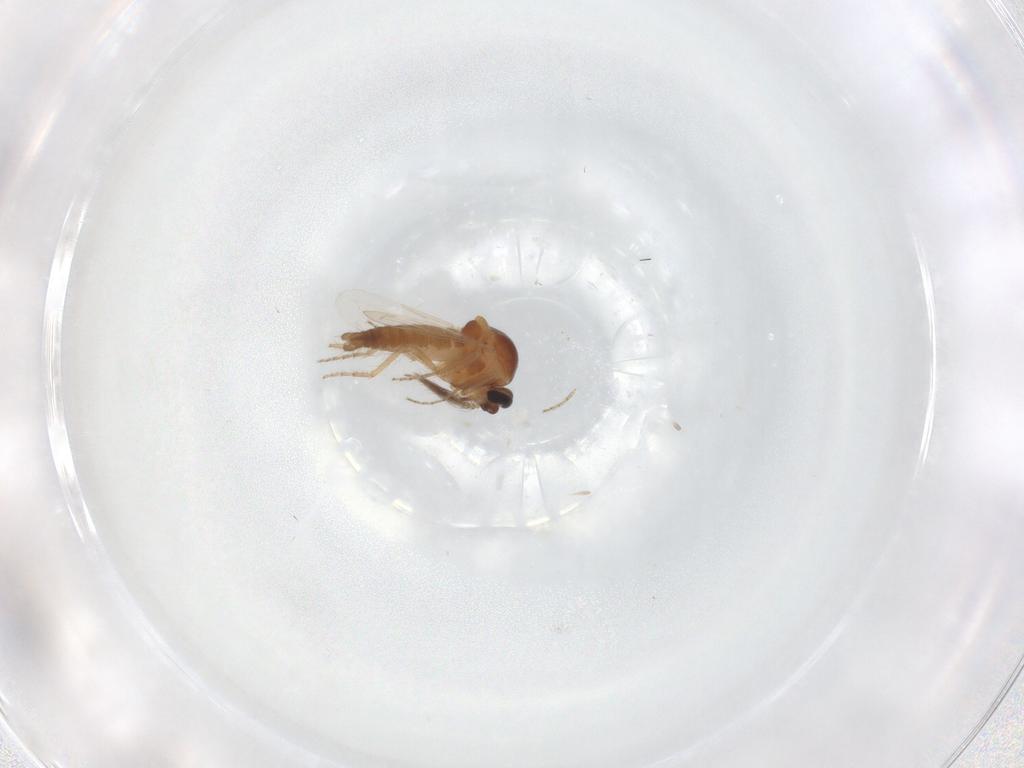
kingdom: Animalia
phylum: Arthropoda
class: Insecta
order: Diptera
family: Ceratopogonidae
